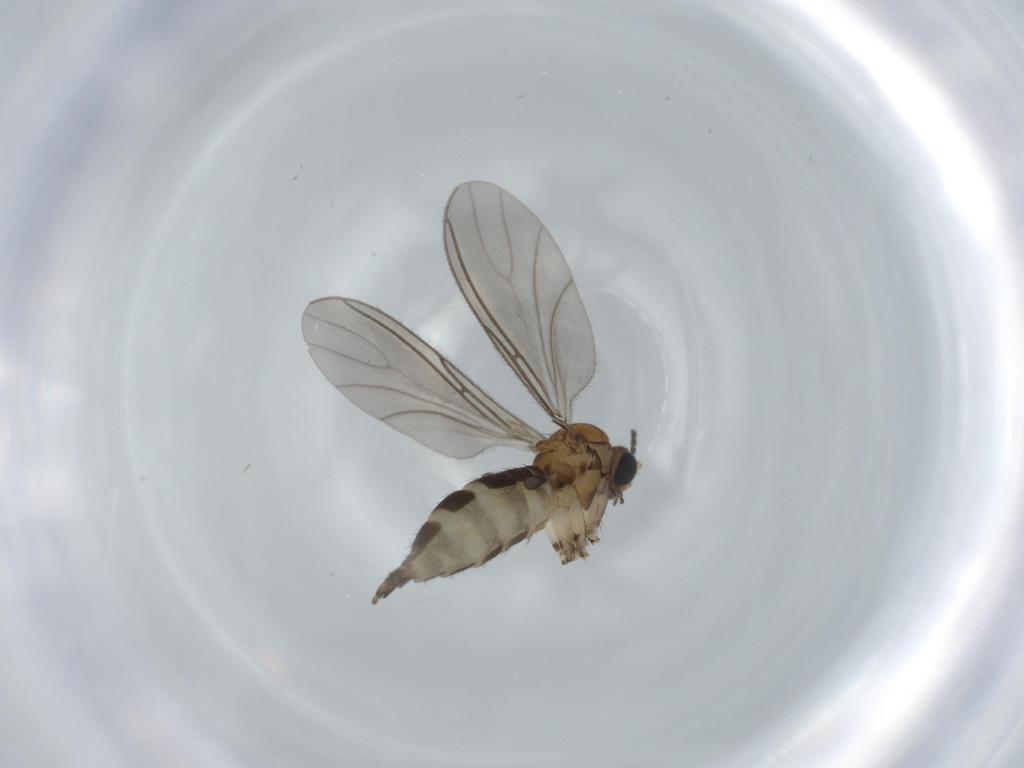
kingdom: Animalia
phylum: Arthropoda
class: Insecta
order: Diptera
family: Sciaridae
